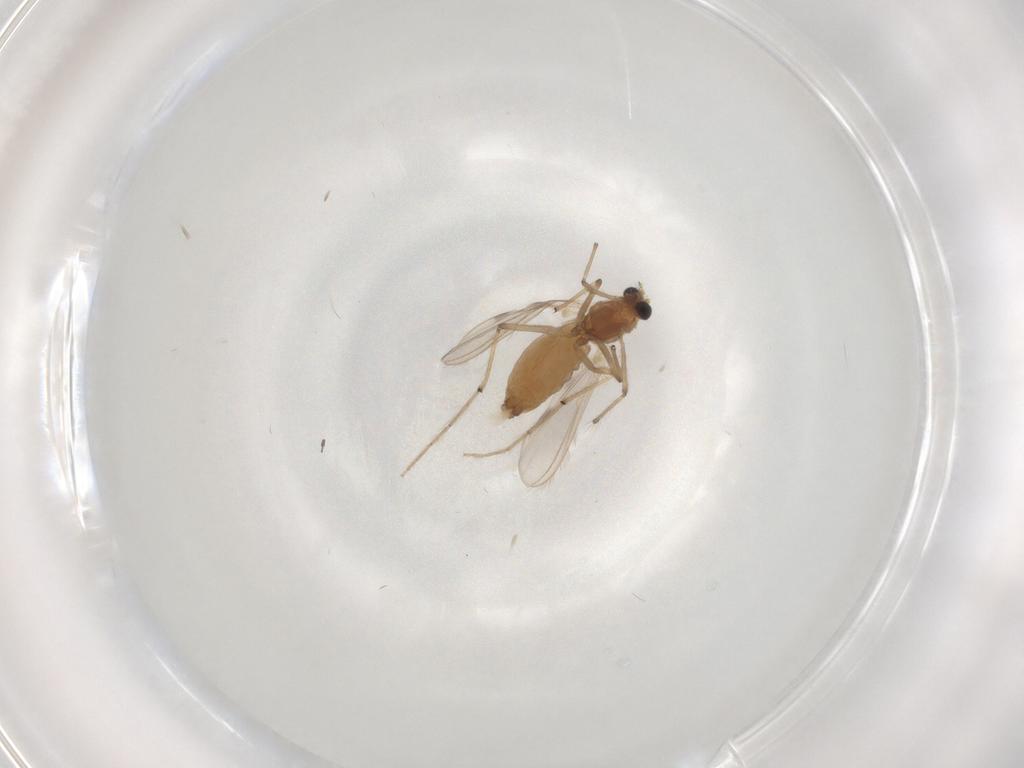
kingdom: Animalia
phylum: Arthropoda
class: Insecta
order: Diptera
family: Chironomidae
